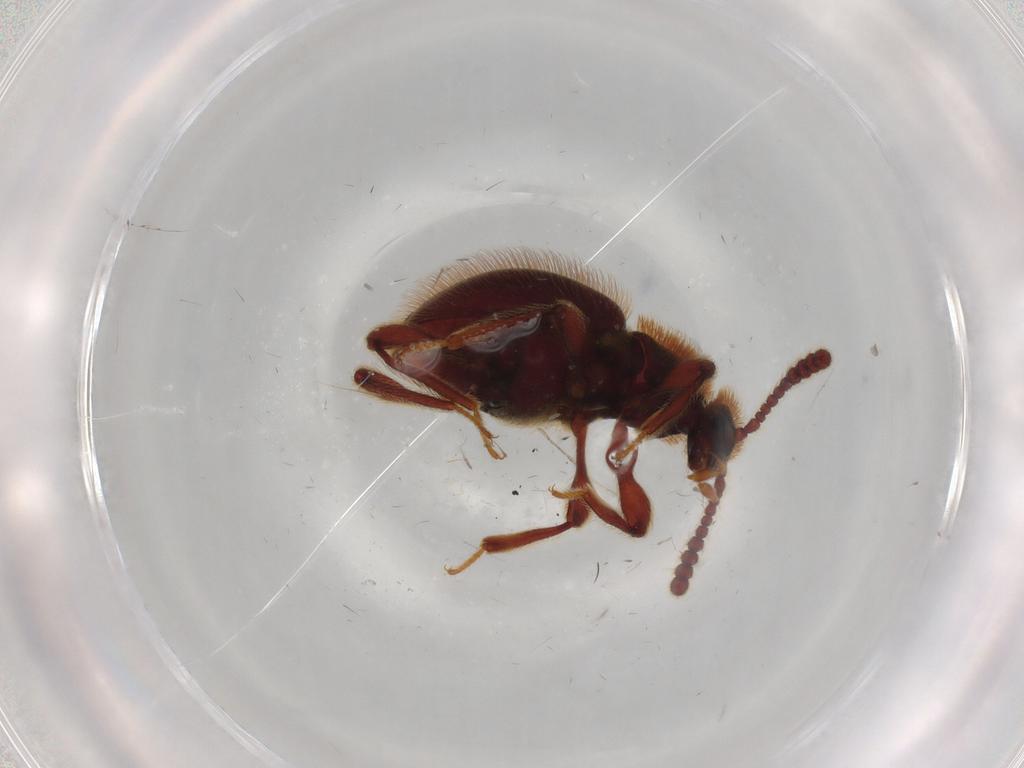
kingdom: Animalia
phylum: Arthropoda
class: Insecta
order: Coleoptera
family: Scirtidae
